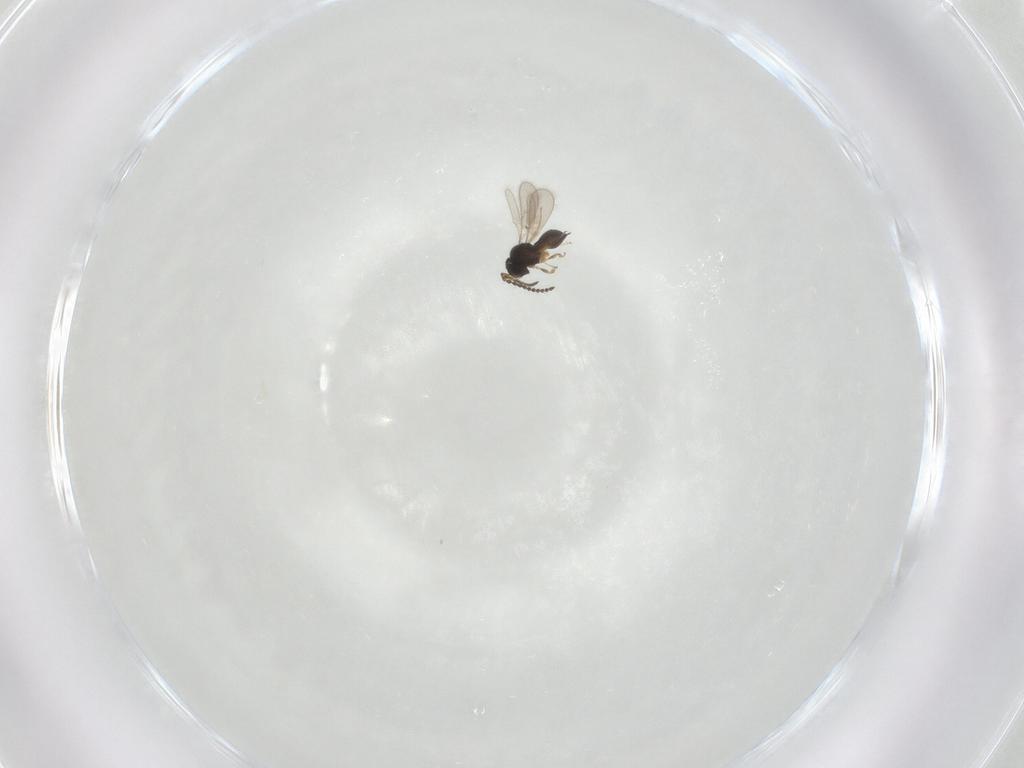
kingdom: Animalia
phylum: Arthropoda
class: Insecta
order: Hymenoptera
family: Scelionidae
